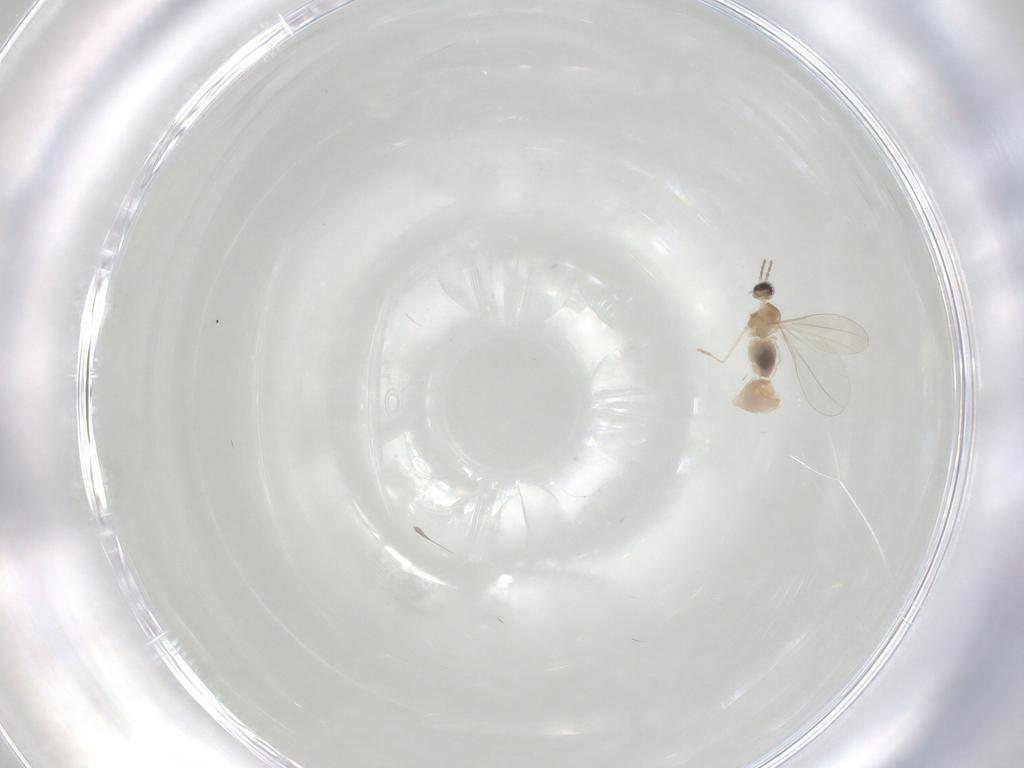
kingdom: Animalia
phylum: Arthropoda
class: Insecta
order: Diptera
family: Cecidomyiidae
